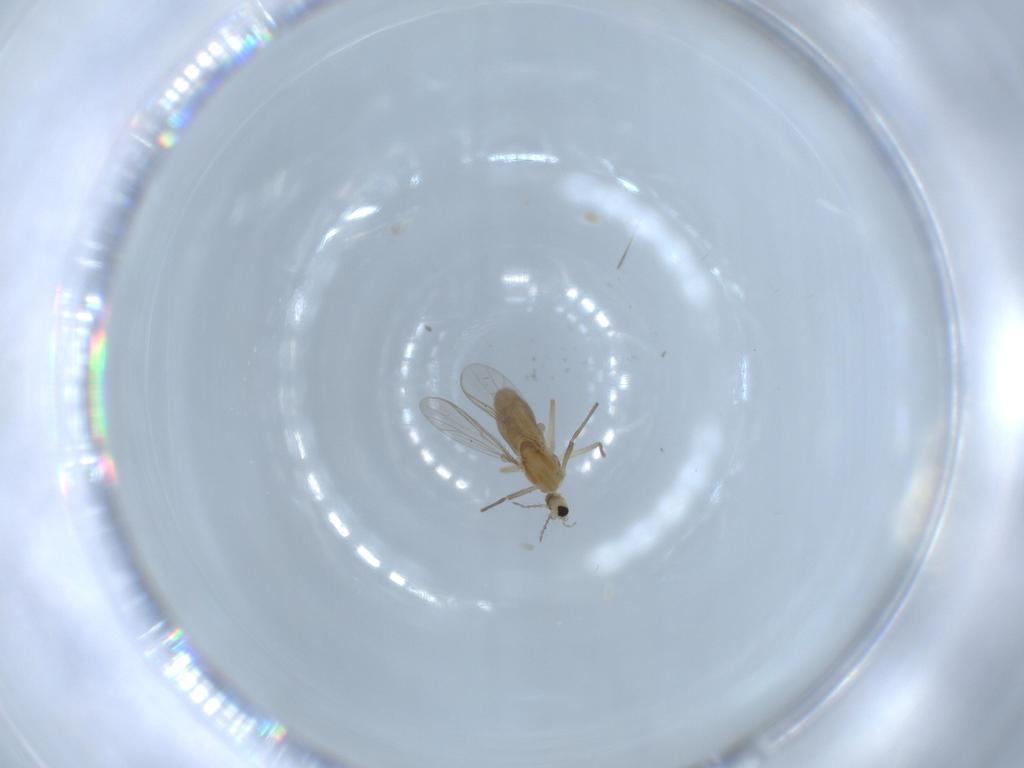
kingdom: Animalia
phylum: Arthropoda
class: Insecta
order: Diptera
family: Chironomidae
